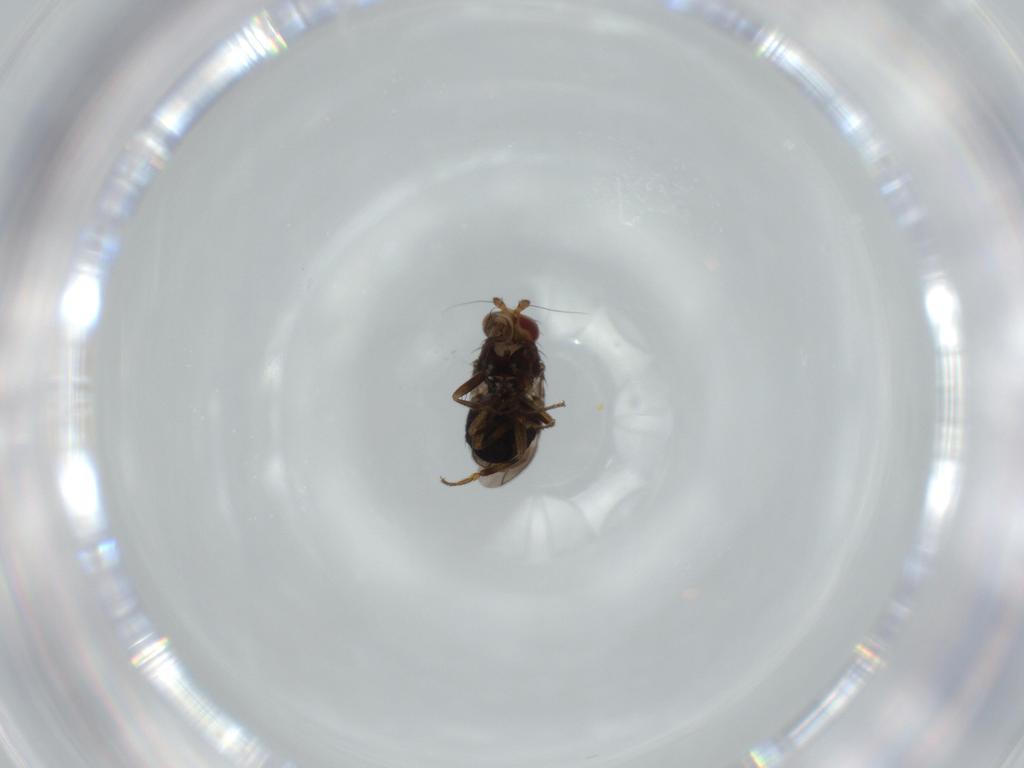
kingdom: Animalia
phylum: Arthropoda
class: Insecta
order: Diptera
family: Sphaeroceridae
